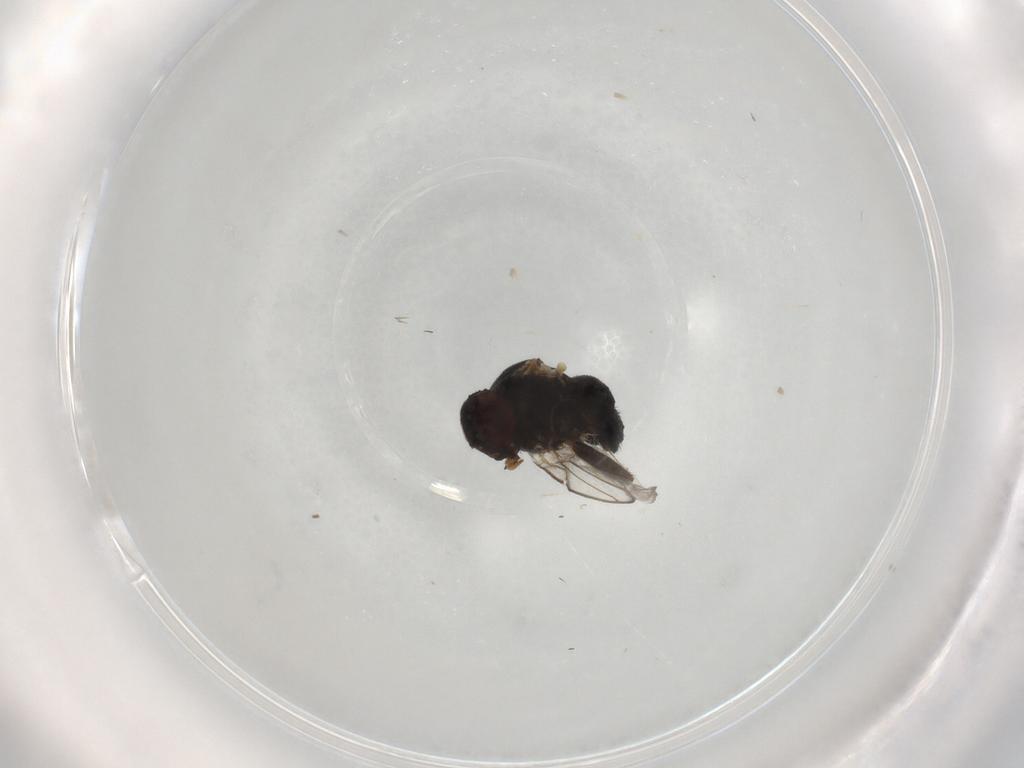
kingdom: Animalia
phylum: Arthropoda
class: Insecta
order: Diptera
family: Chironomidae
